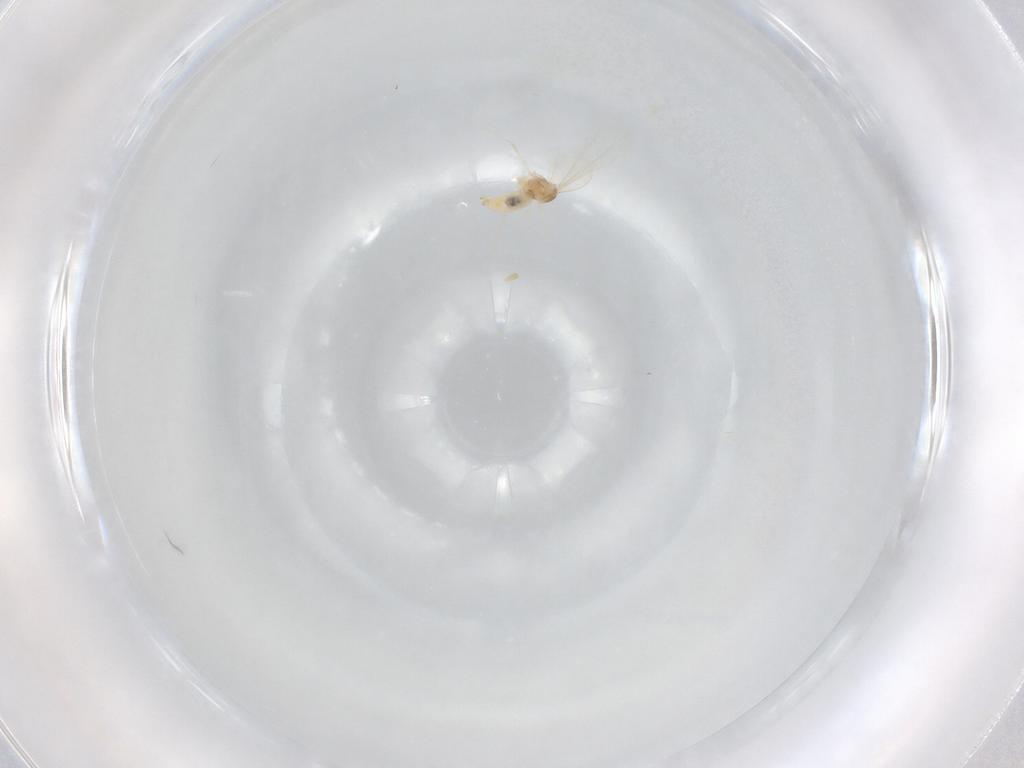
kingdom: Animalia
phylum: Arthropoda
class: Insecta
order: Diptera
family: Cecidomyiidae
